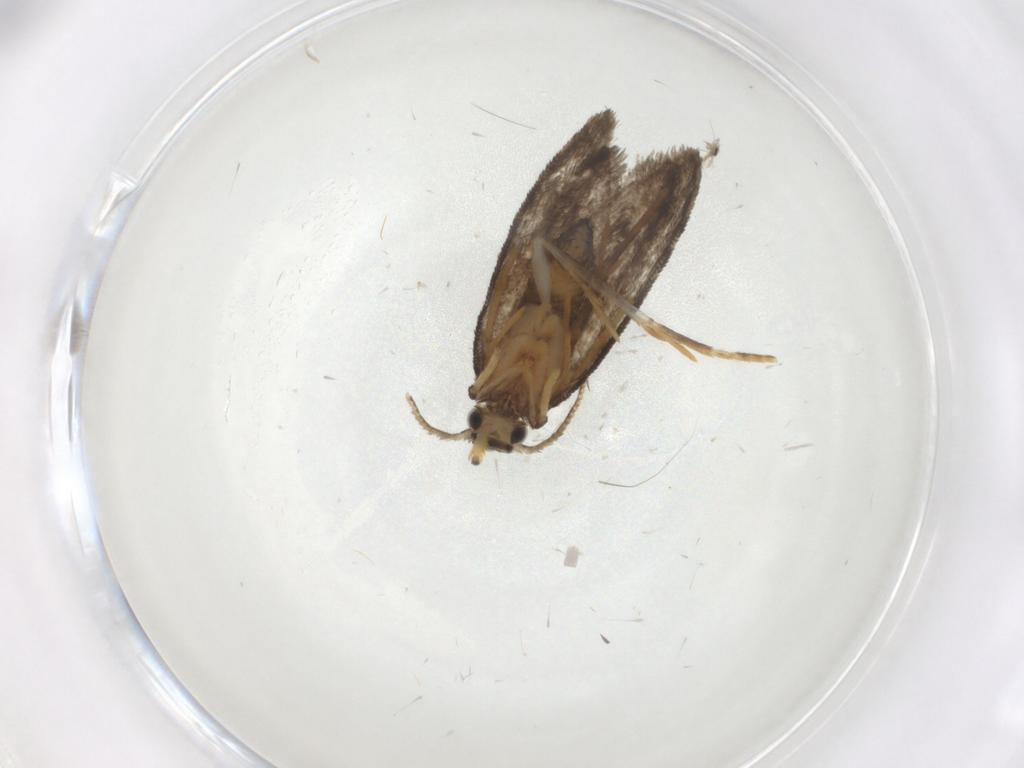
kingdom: Animalia
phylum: Arthropoda
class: Insecta
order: Lepidoptera
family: Psychidae
